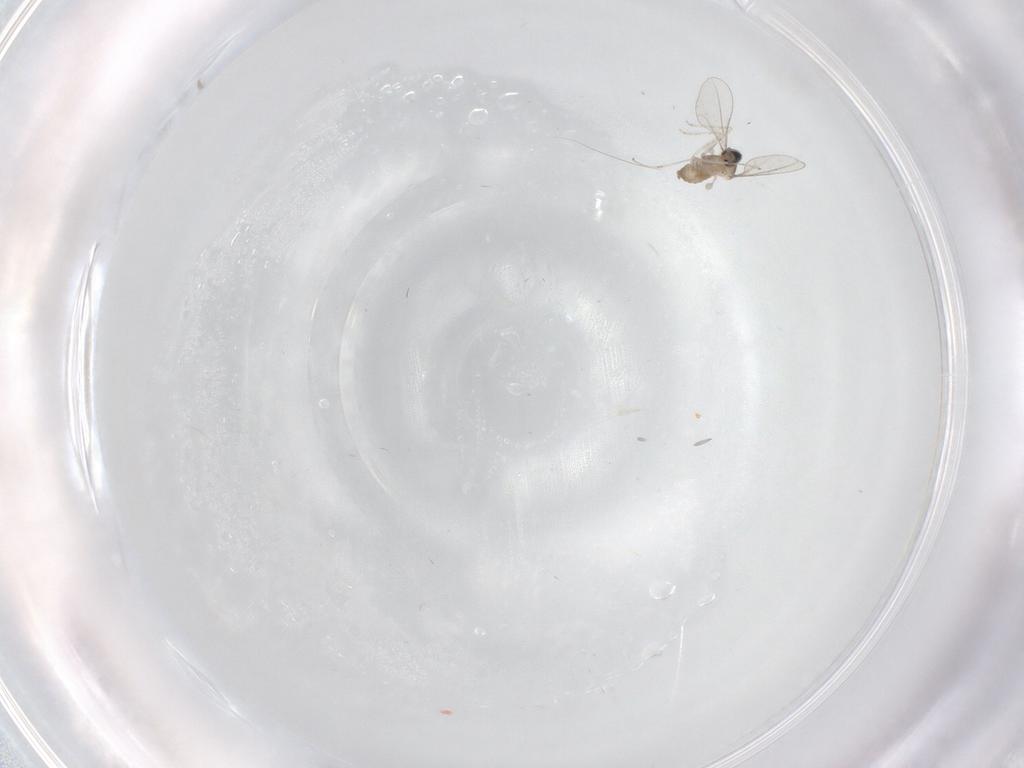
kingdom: Animalia
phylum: Arthropoda
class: Insecta
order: Diptera
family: Cecidomyiidae
